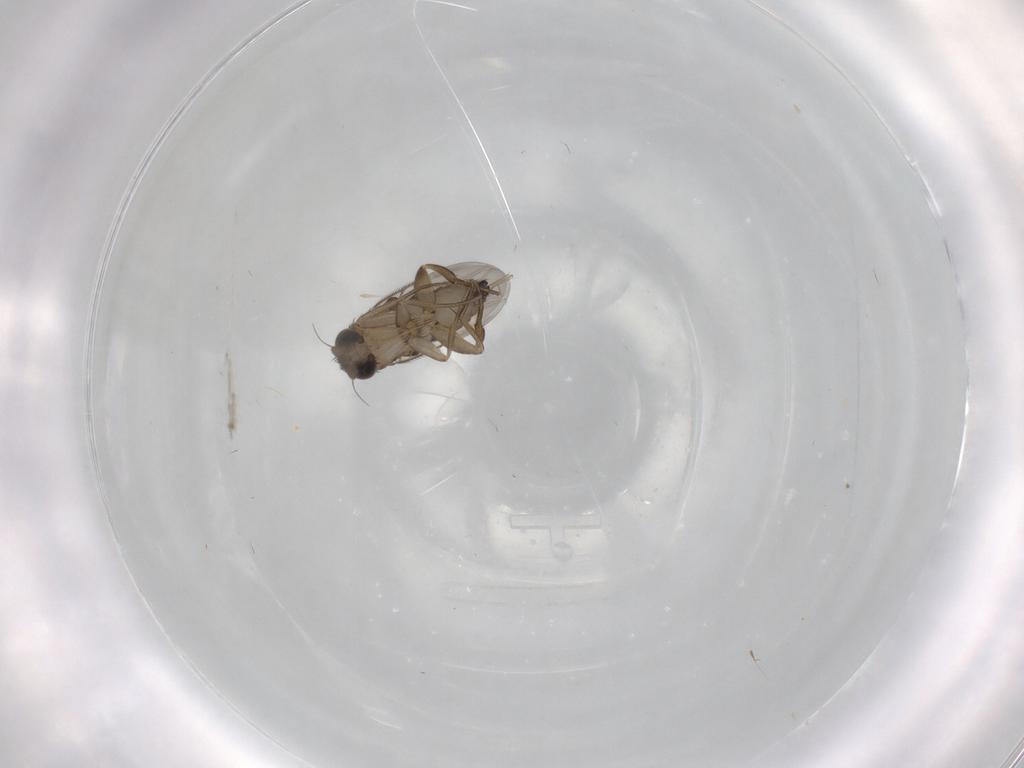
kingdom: Animalia
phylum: Arthropoda
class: Insecta
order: Diptera
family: Phoridae
